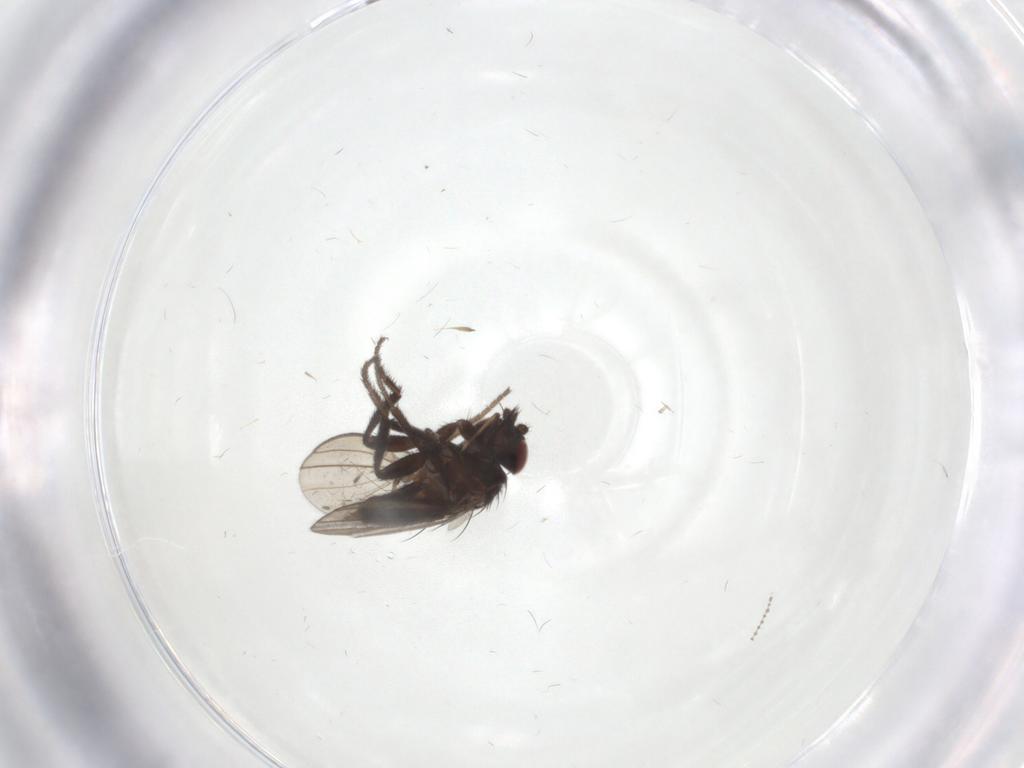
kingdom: Animalia
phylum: Arthropoda
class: Insecta
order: Diptera
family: Milichiidae
